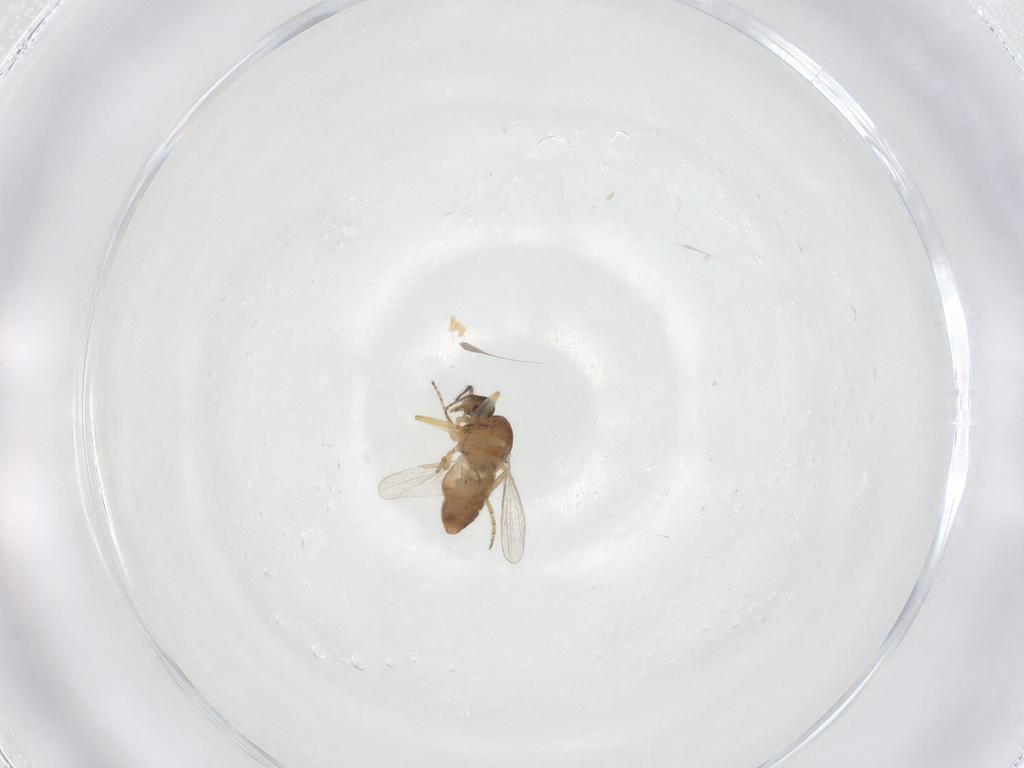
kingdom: Animalia
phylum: Arthropoda
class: Insecta
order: Diptera
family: Ceratopogonidae
